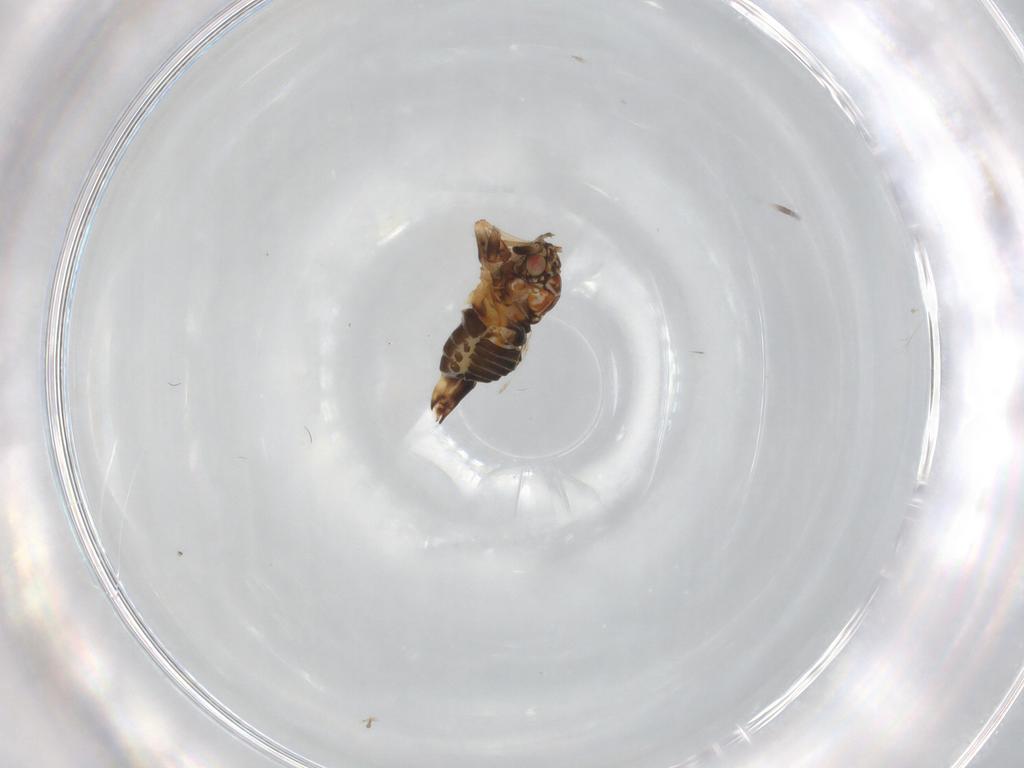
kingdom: Animalia
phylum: Arthropoda
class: Insecta
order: Hemiptera
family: Psyllidae
